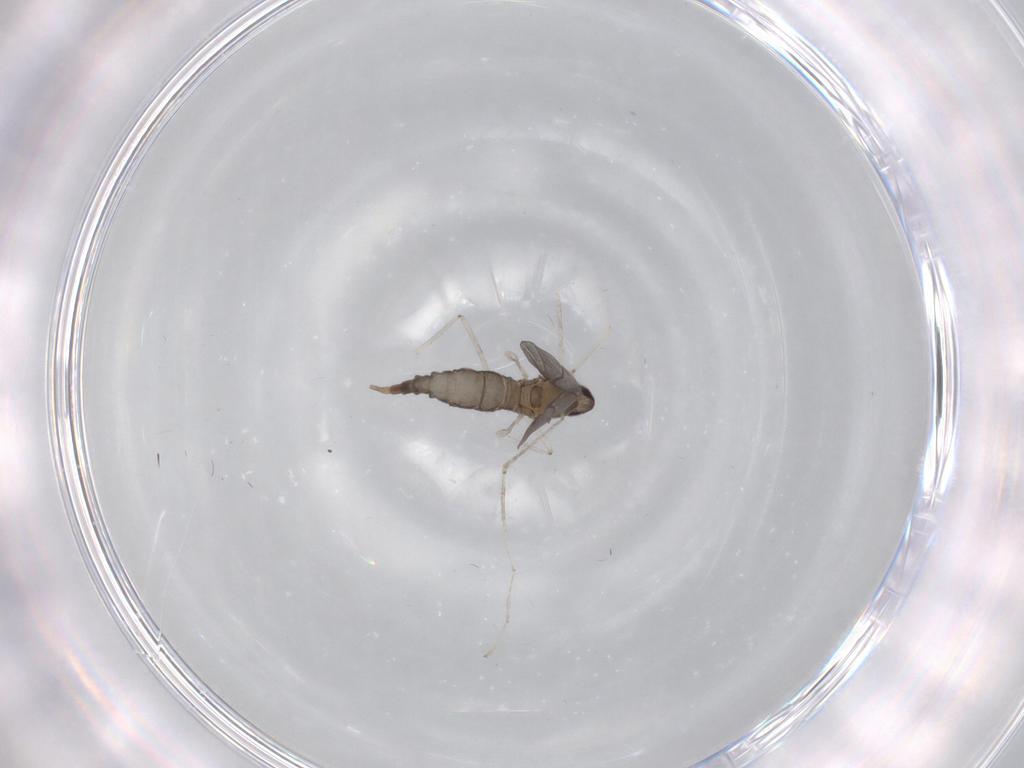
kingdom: Animalia
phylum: Arthropoda
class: Insecta
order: Diptera
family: Cecidomyiidae
